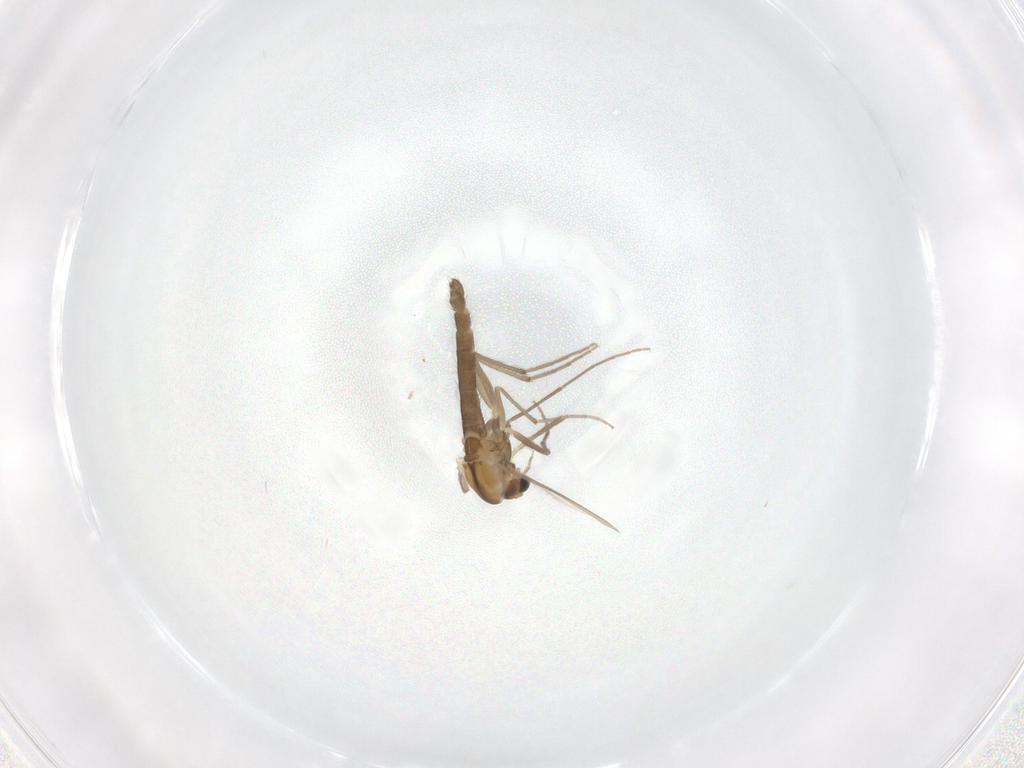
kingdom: Animalia
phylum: Arthropoda
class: Insecta
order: Diptera
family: Chironomidae
